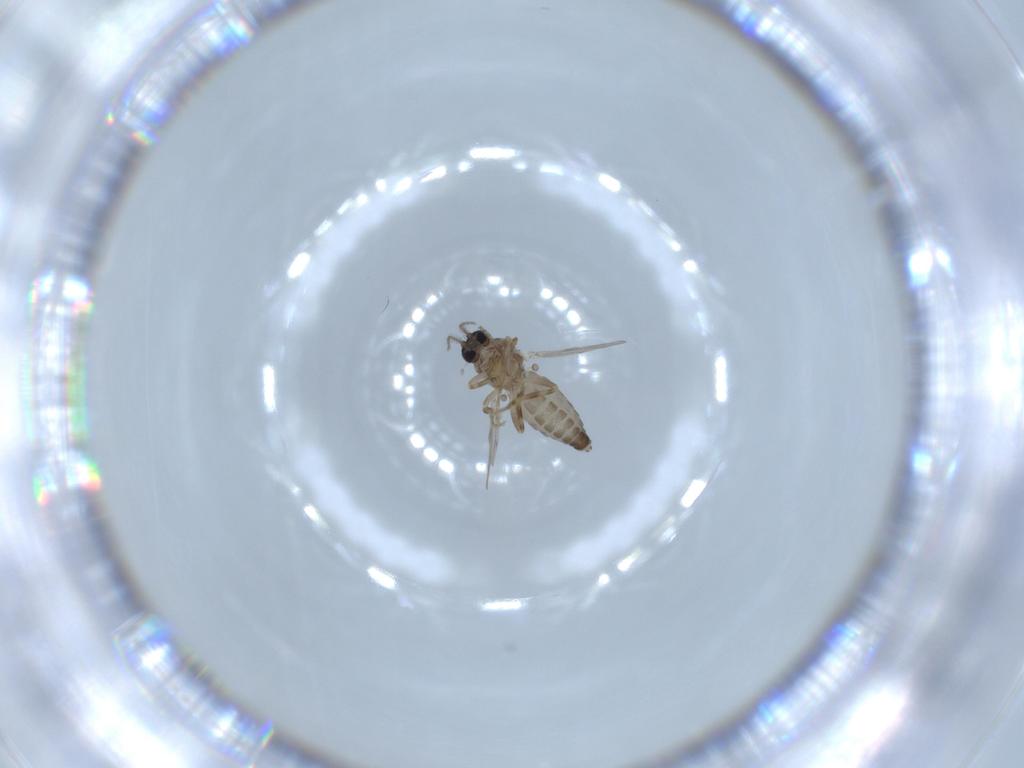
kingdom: Animalia
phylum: Arthropoda
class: Insecta
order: Diptera
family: Ceratopogonidae
